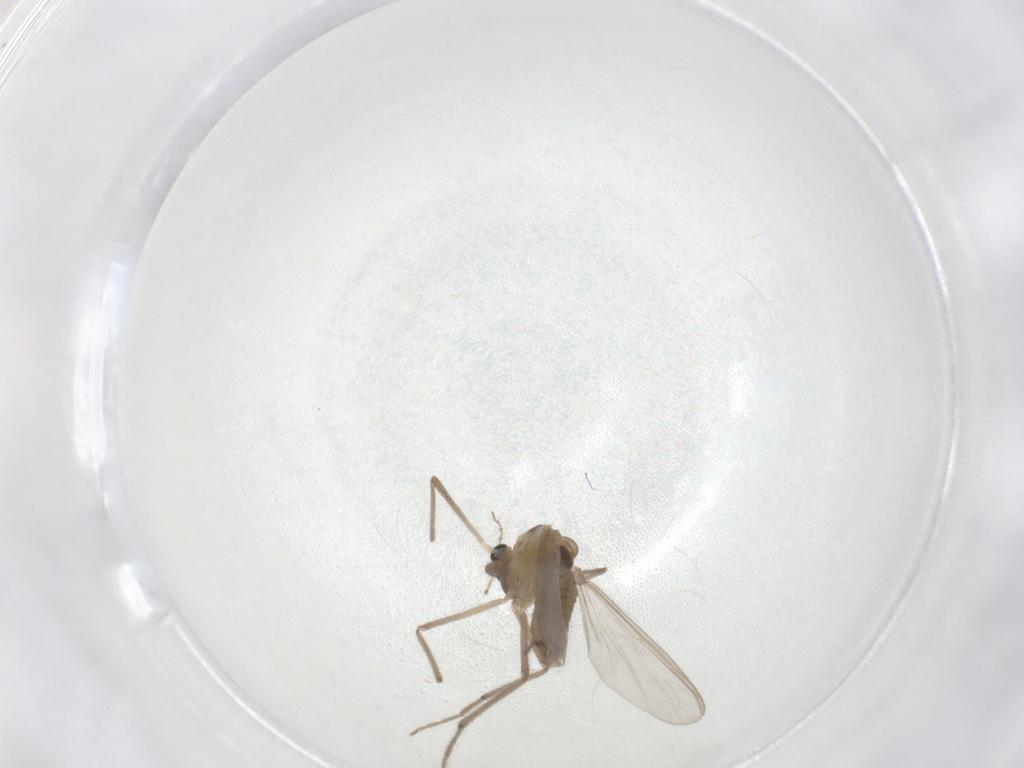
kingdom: Animalia
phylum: Arthropoda
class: Insecta
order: Diptera
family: Chironomidae
